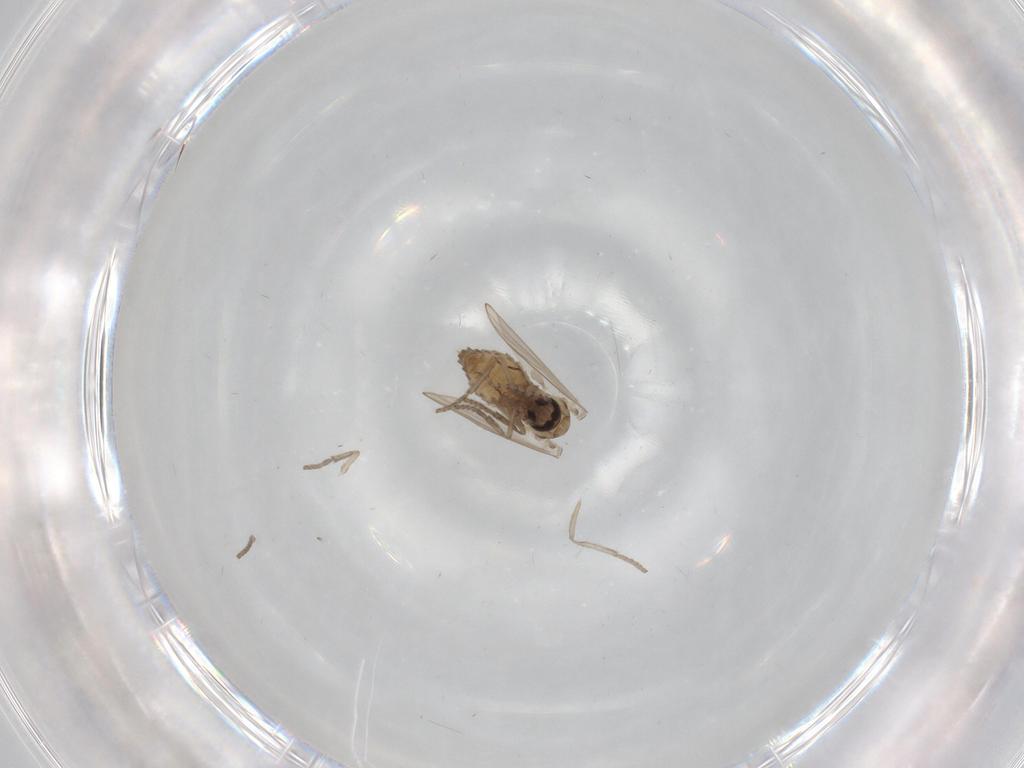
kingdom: Animalia
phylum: Arthropoda
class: Insecta
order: Diptera
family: Psychodidae
